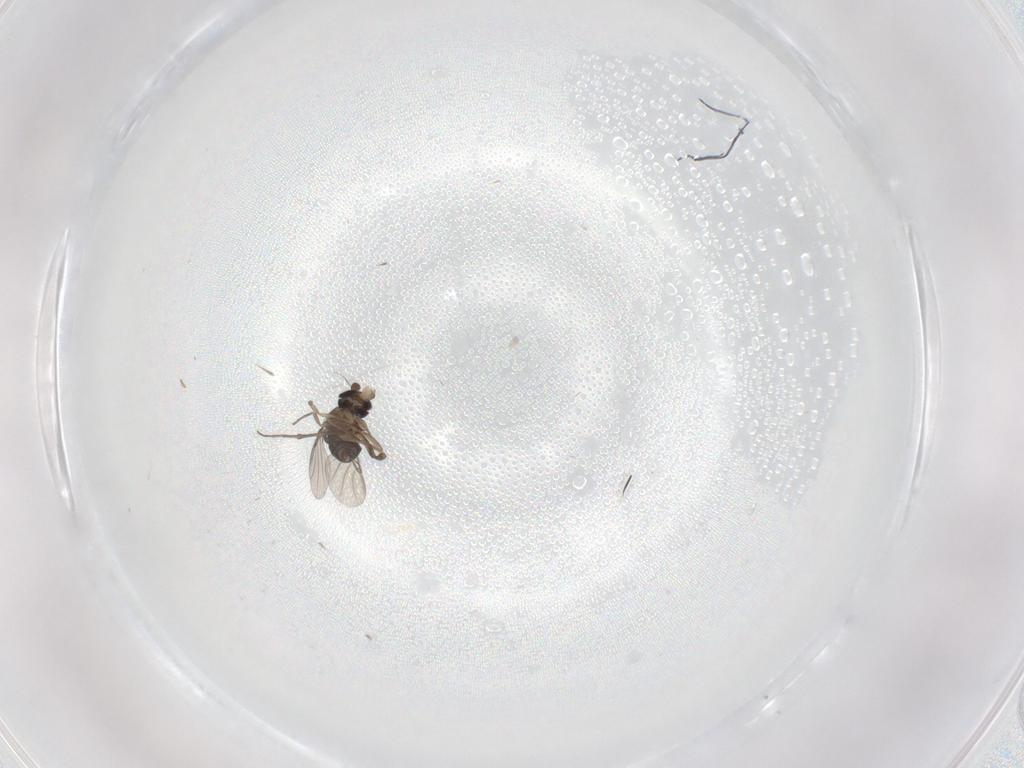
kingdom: Animalia
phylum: Arthropoda
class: Insecta
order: Diptera
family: Phoridae
